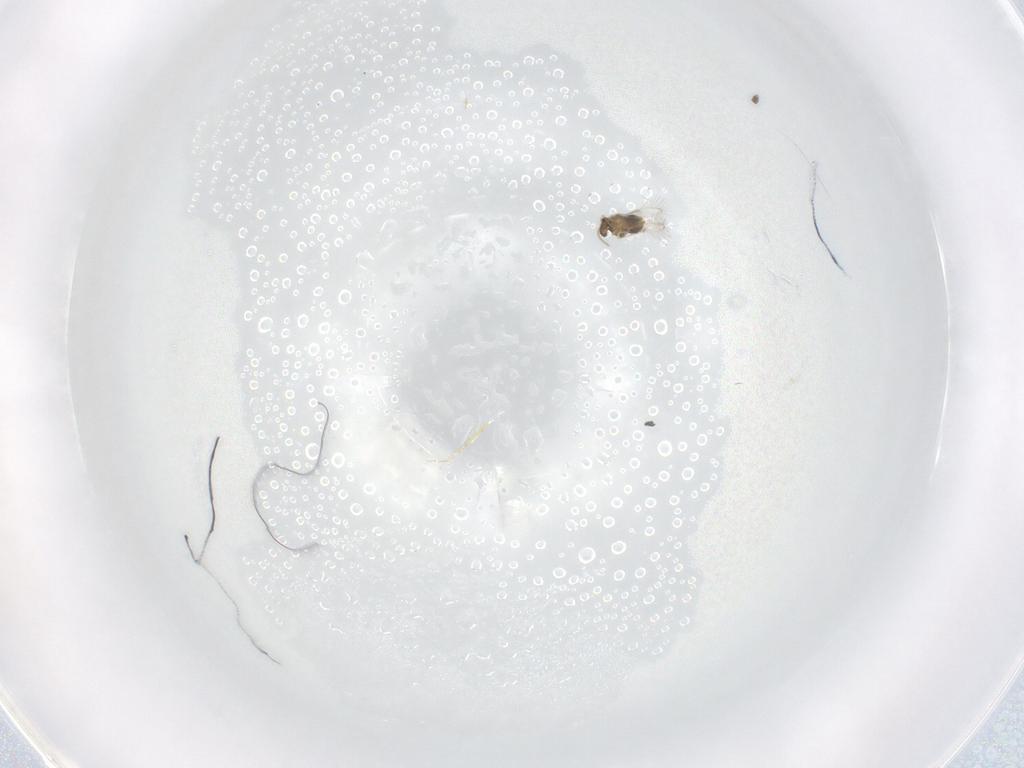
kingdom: Animalia
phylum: Arthropoda
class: Insecta
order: Hymenoptera
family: Aphelinidae
